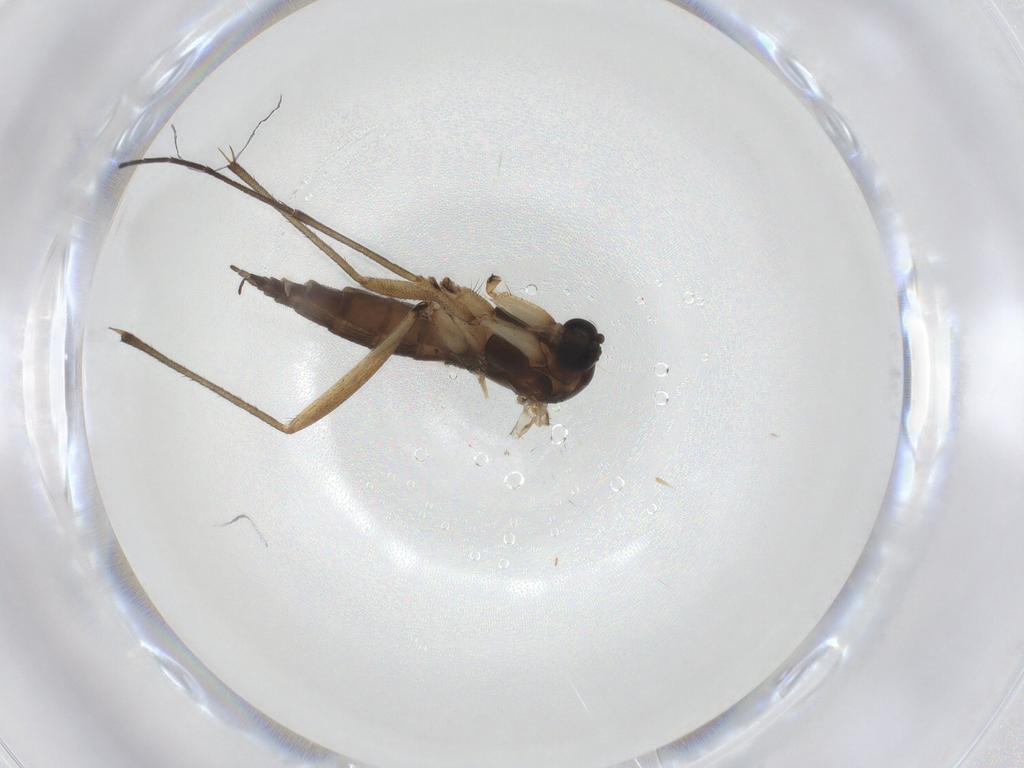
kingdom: Animalia
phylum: Arthropoda
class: Insecta
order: Diptera
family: Sciaridae
